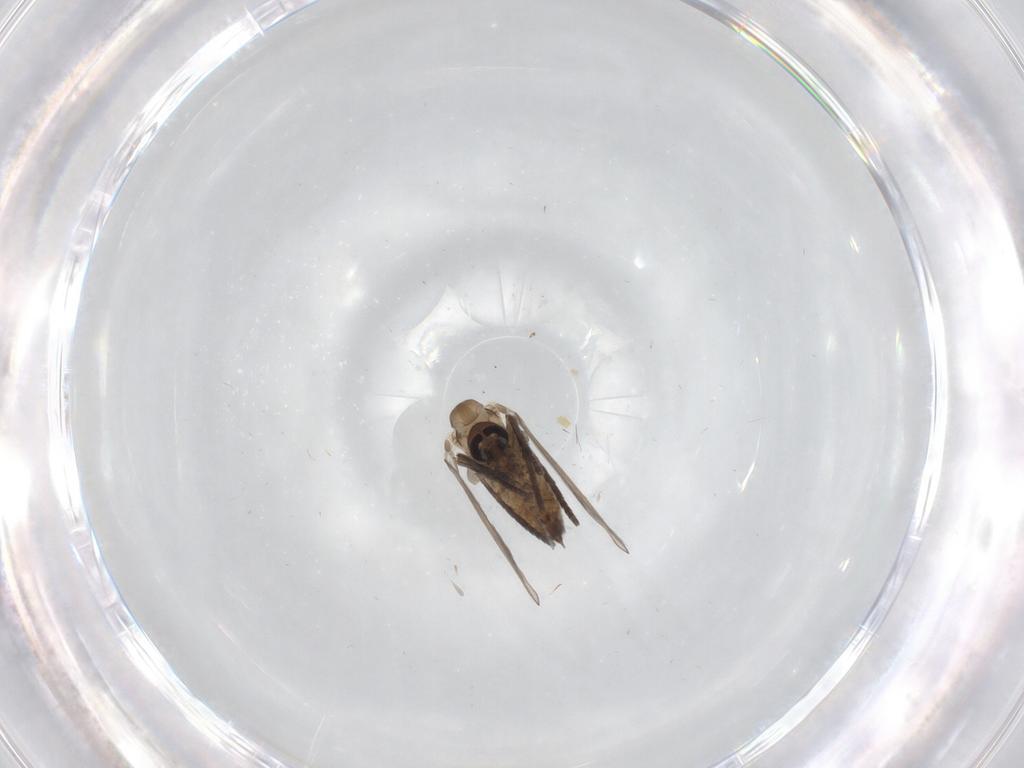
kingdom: Animalia
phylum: Arthropoda
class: Insecta
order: Diptera
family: Psychodidae
